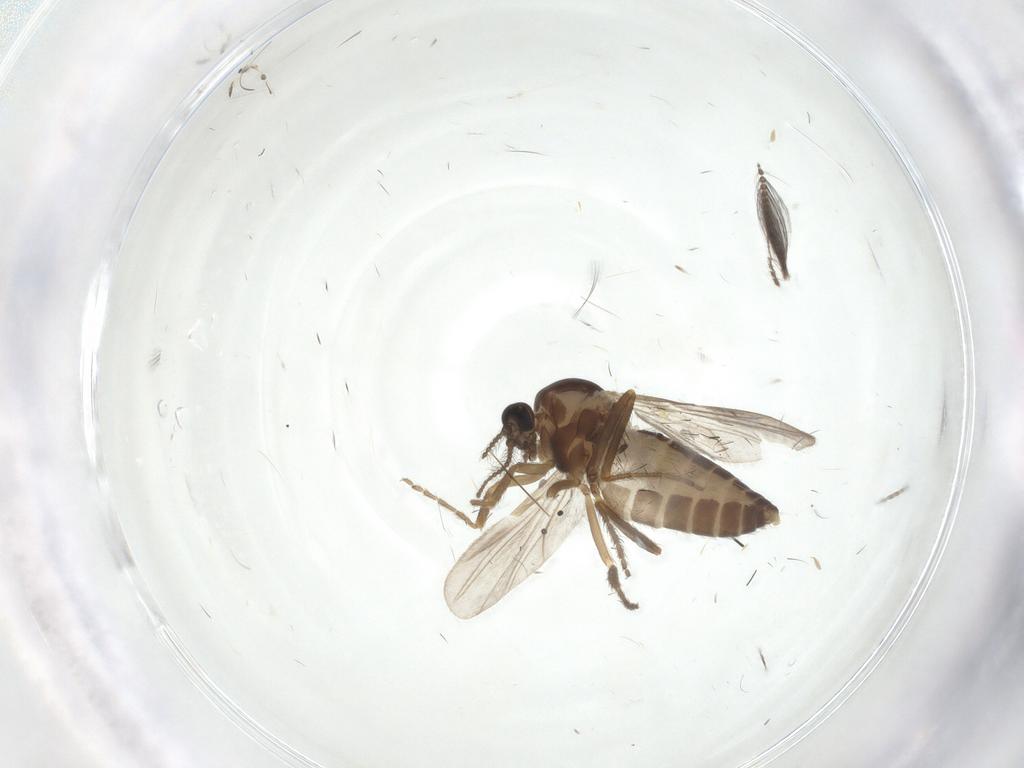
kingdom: Animalia
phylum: Arthropoda
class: Insecta
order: Diptera
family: Ceratopogonidae
